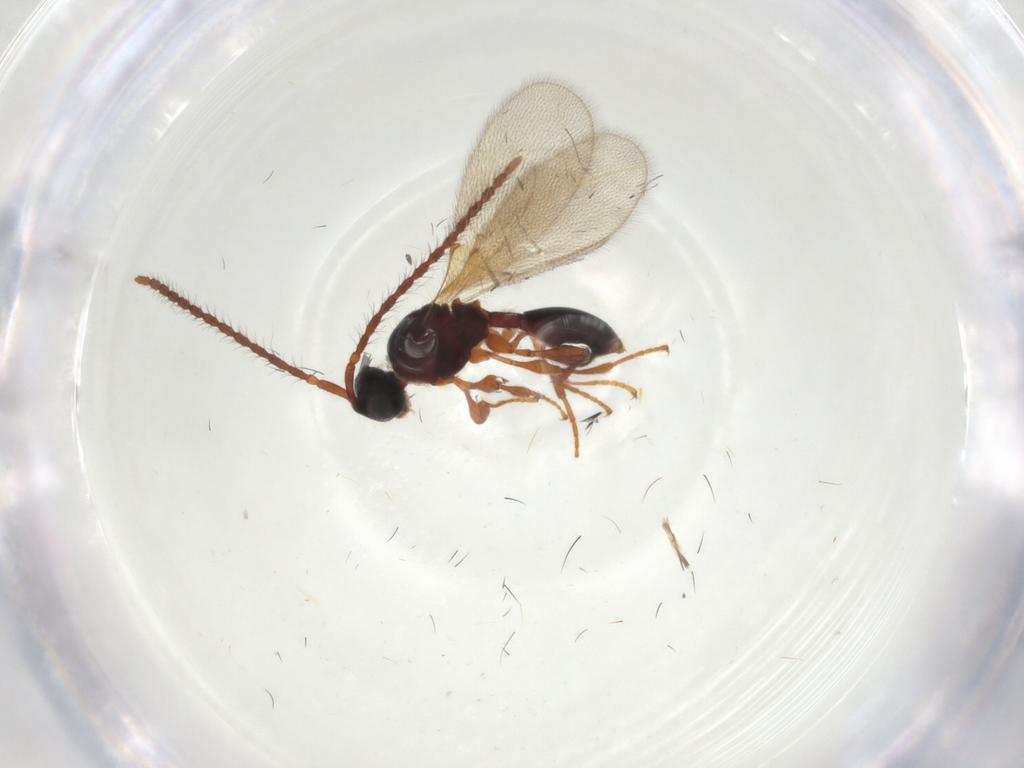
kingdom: Animalia
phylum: Arthropoda
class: Insecta
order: Hymenoptera
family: Diapriidae
